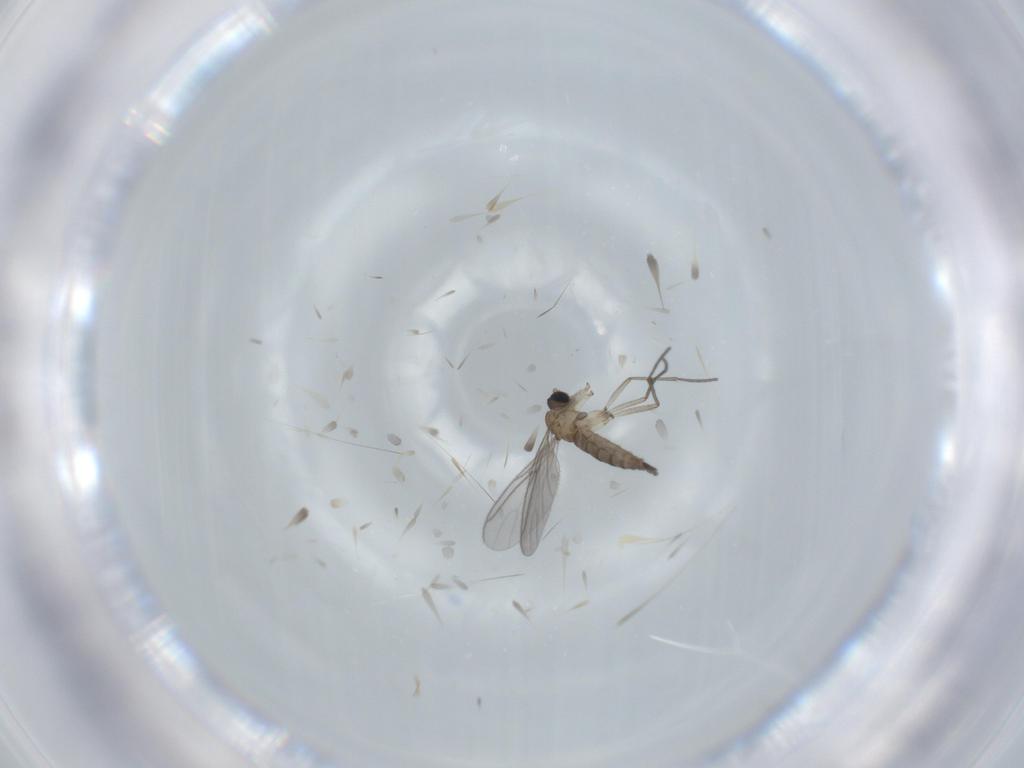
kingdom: Animalia
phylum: Arthropoda
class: Insecta
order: Diptera
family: Sciaridae
